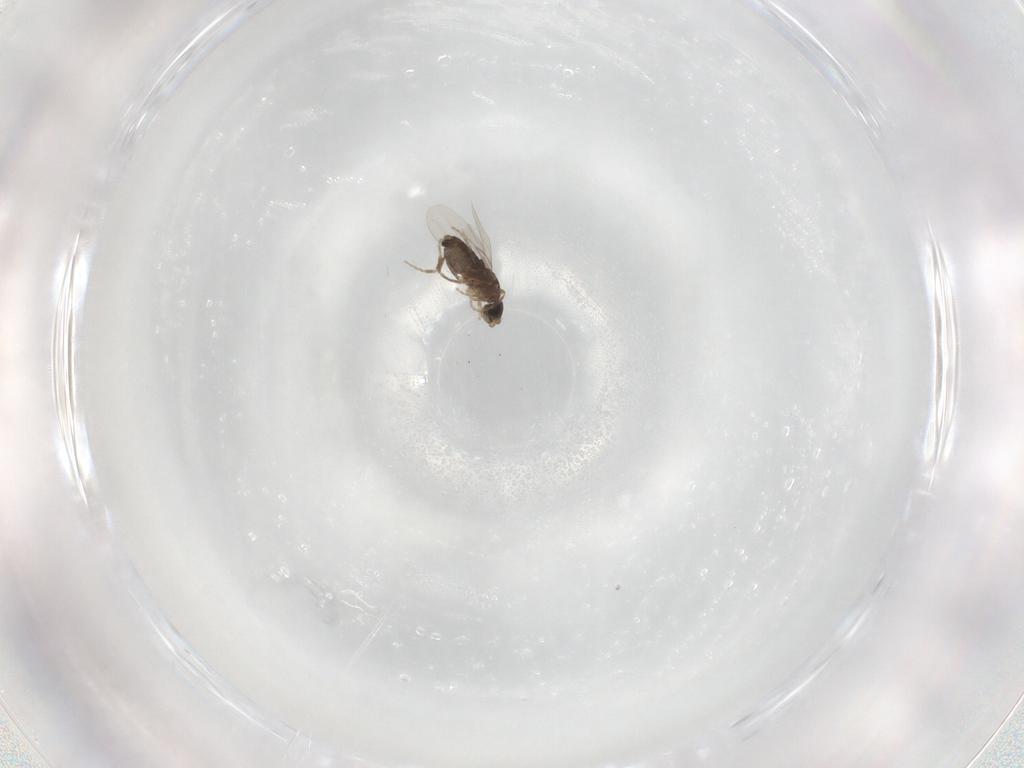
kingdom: Animalia
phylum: Arthropoda
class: Insecta
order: Diptera
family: Phoridae
